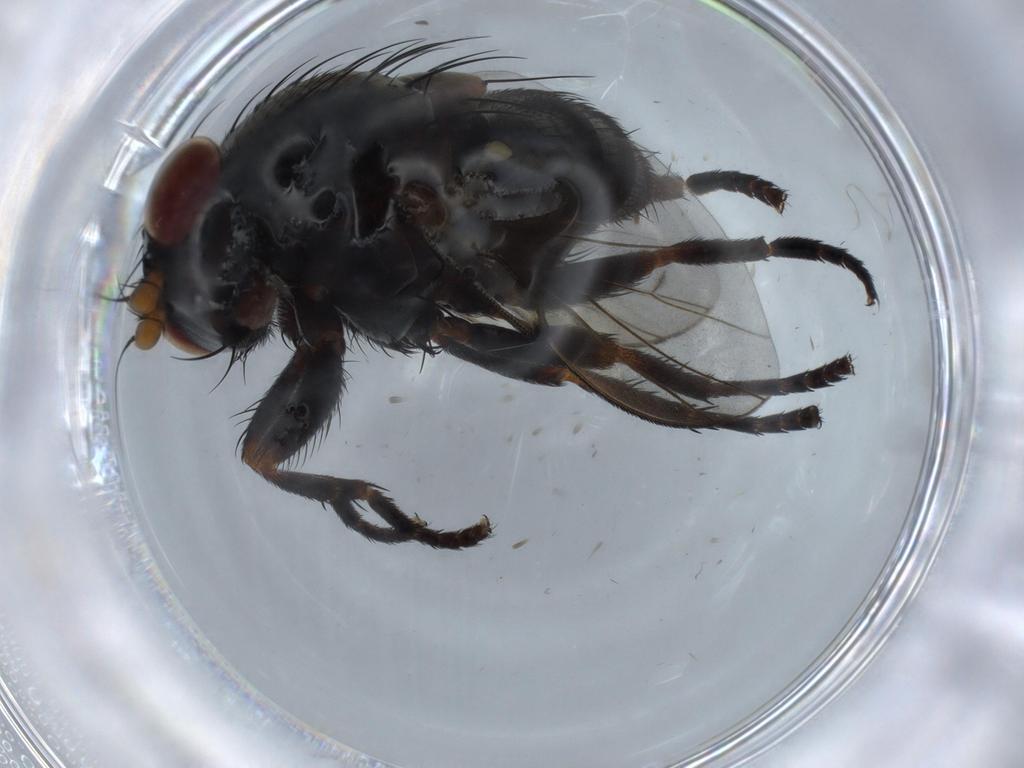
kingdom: Animalia
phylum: Arthropoda
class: Insecta
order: Diptera
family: Cecidomyiidae
